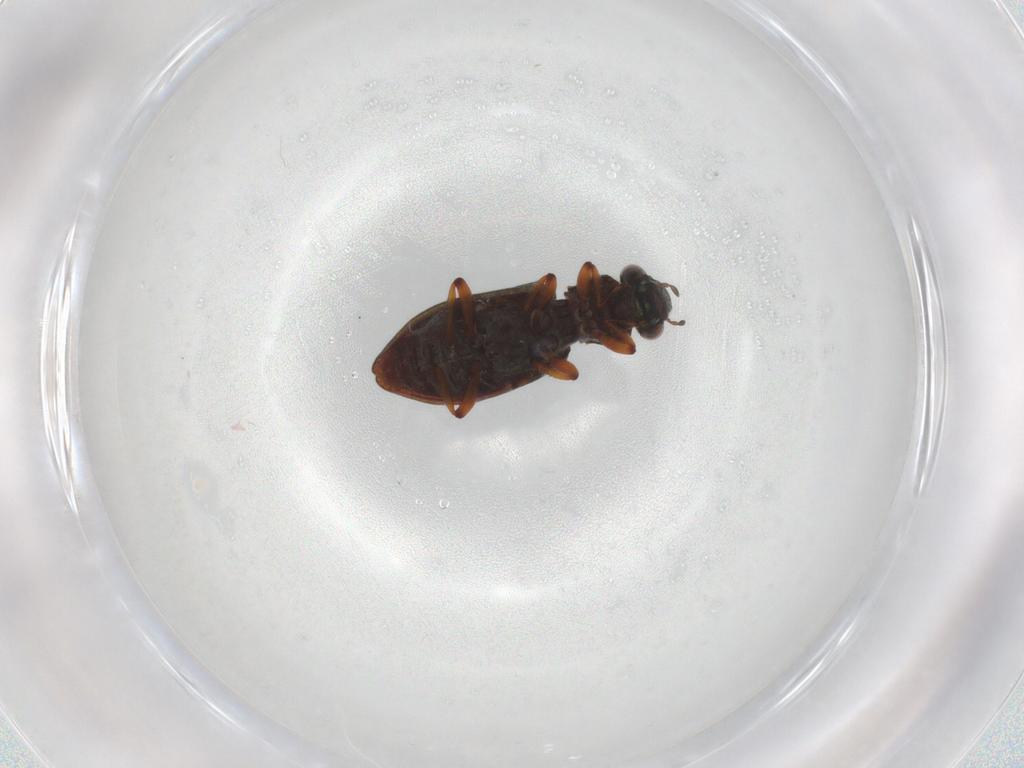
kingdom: Animalia
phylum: Arthropoda
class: Insecta
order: Coleoptera
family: Hydrophilidae
